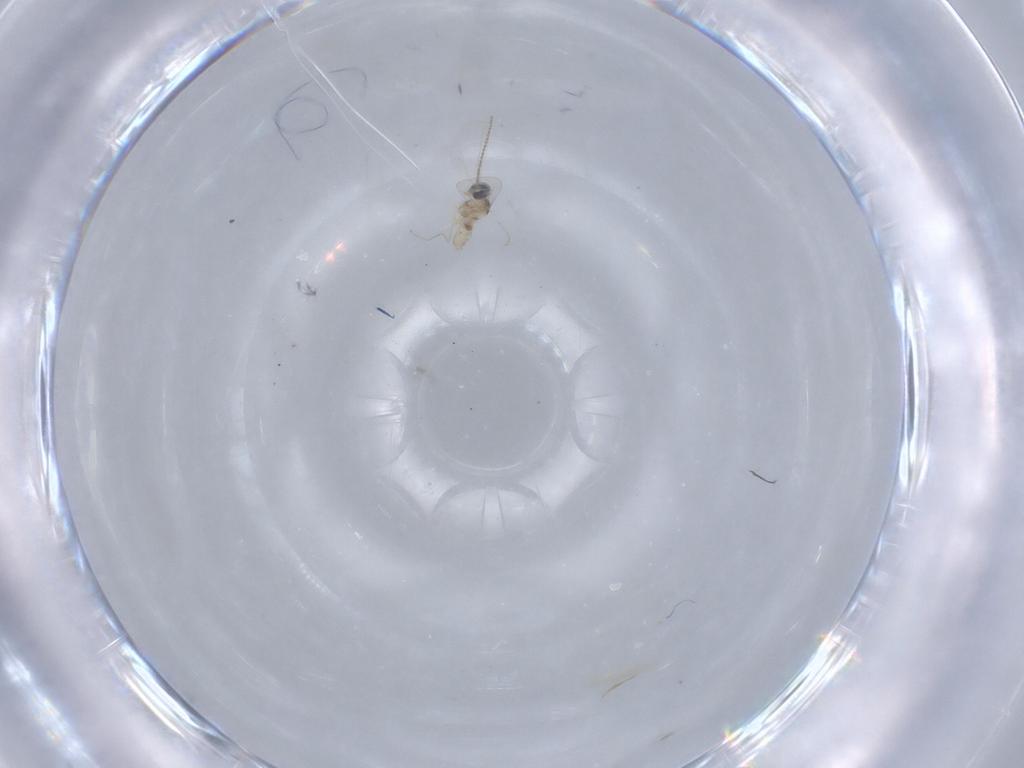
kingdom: Animalia
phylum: Arthropoda
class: Insecta
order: Diptera
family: Cecidomyiidae
